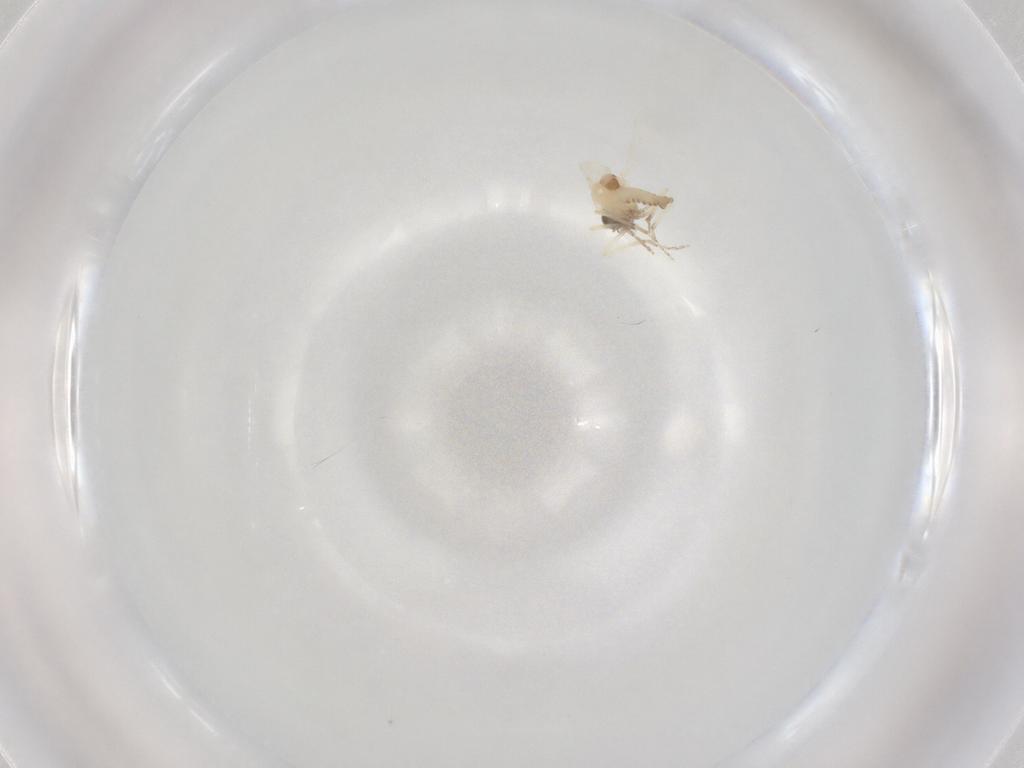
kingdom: Animalia
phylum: Arthropoda
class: Insecta
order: Diptera
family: Ceratopogonidae
